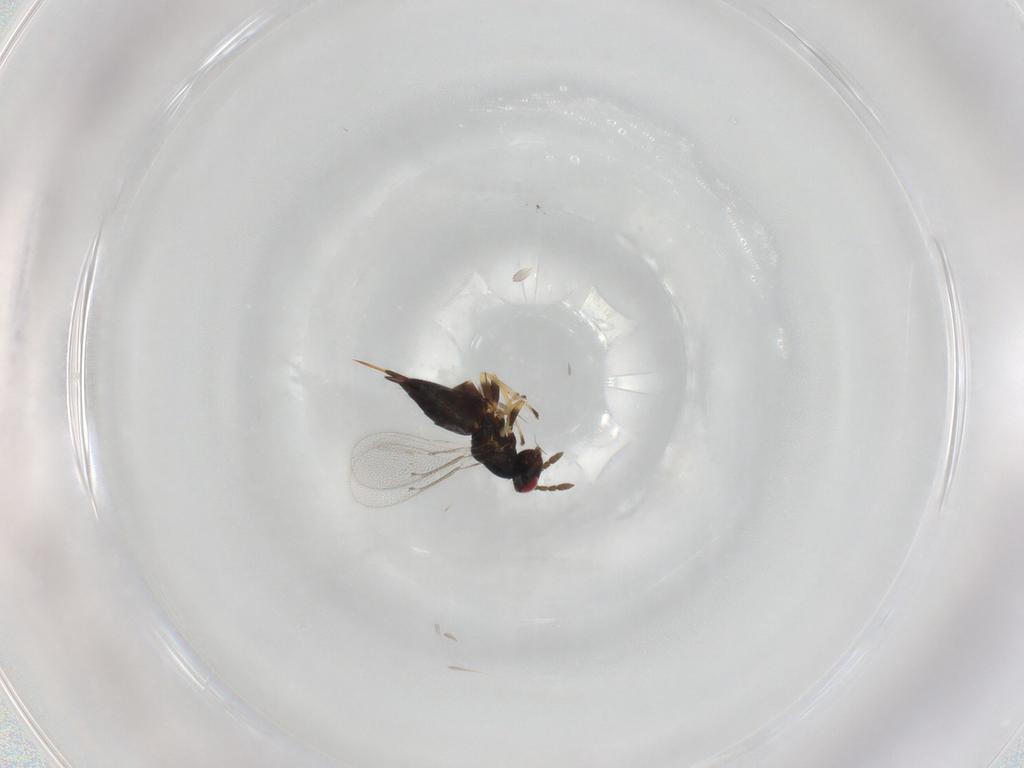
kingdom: Animalia
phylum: Arthropoda
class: Insecta
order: Hymenoptera
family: Eulophidae
